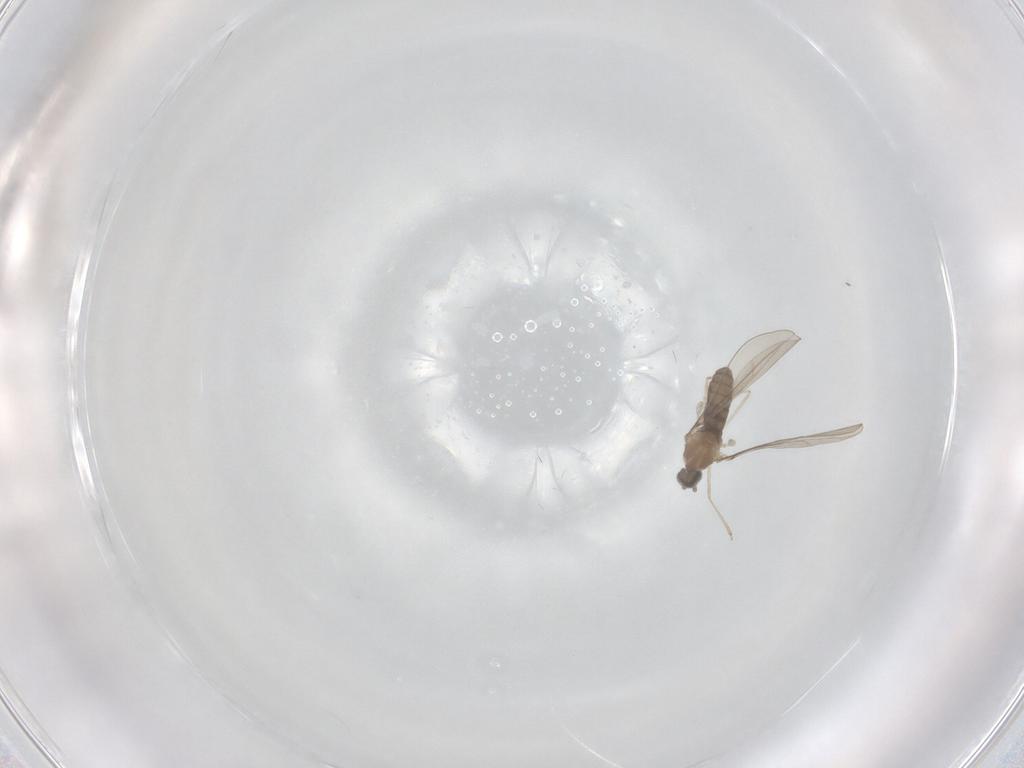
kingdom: Animalia
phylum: Arthropoda
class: Insecta
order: Diptera
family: Cecidomyiidae
